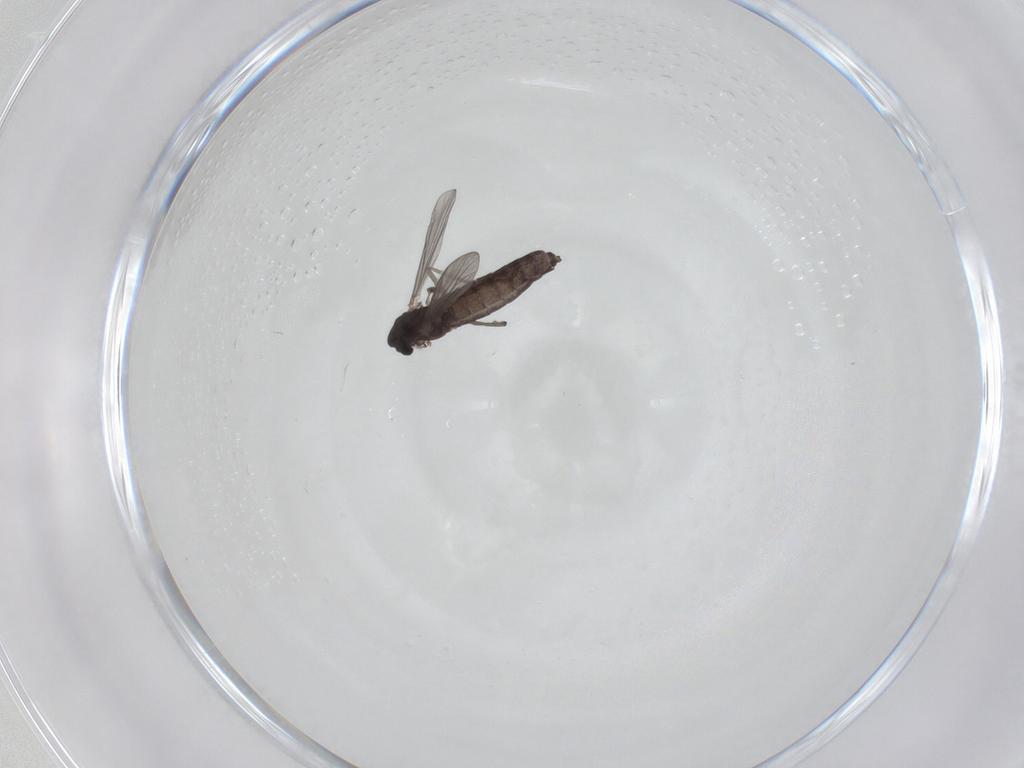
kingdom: Animalia
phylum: Arthropoda
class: Insecta
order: Diptera
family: Chironomidae
